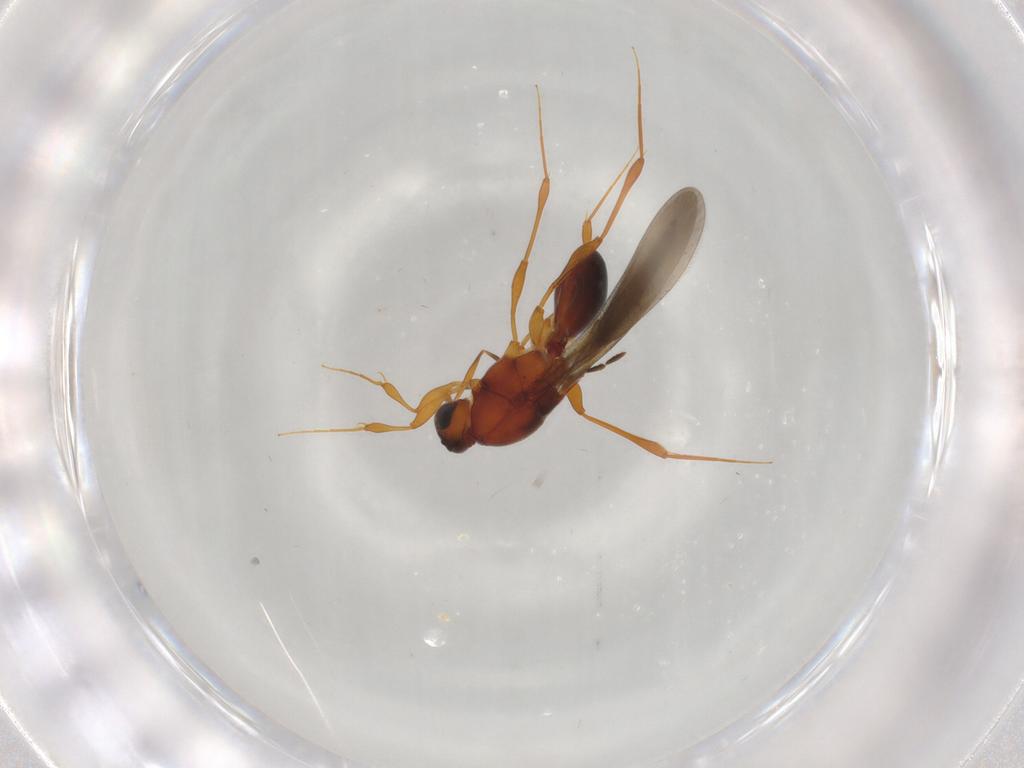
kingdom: Animalia
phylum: Arthropoda
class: Insecta
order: Hymenoptera
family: Platygastridae
